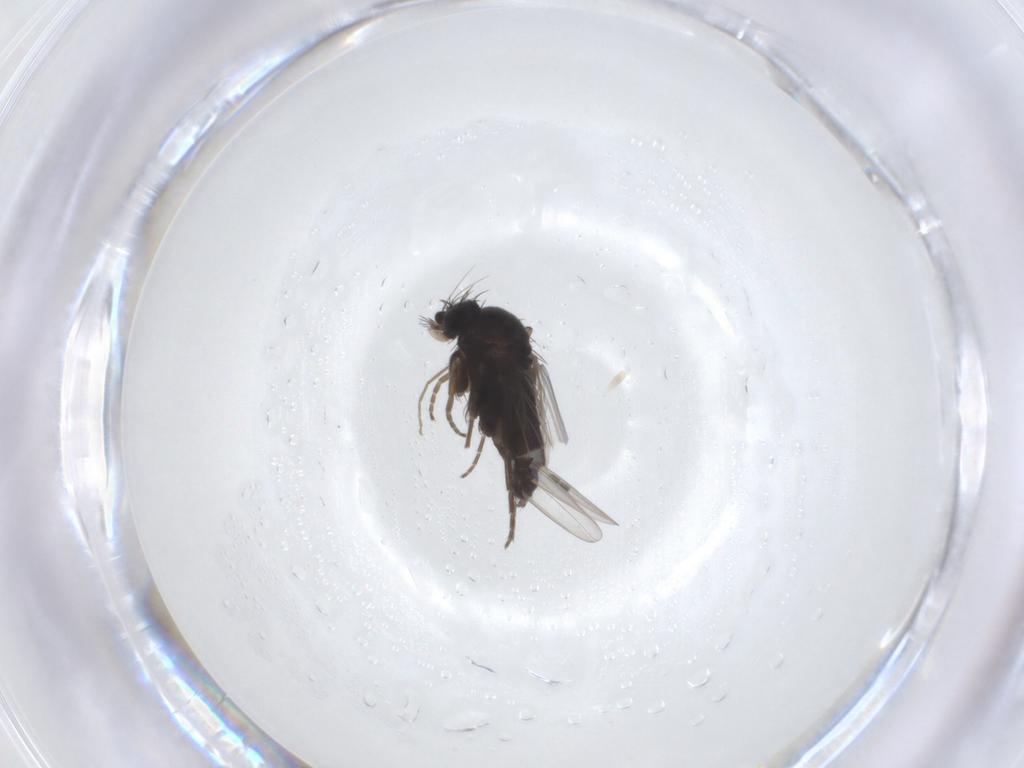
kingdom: Animalia
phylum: Arthropoda
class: Insecta
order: Diptera
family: Phoridae
